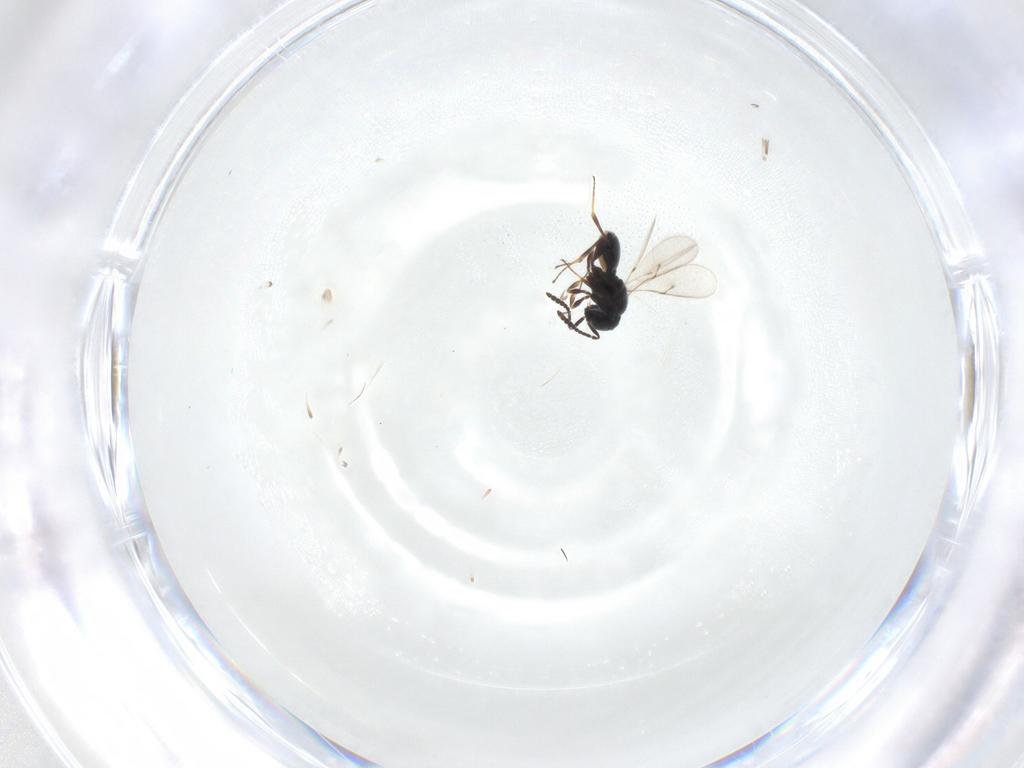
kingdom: Animalia
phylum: Arthropoda
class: Insecta
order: Hymenoptera
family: Scelionidae
